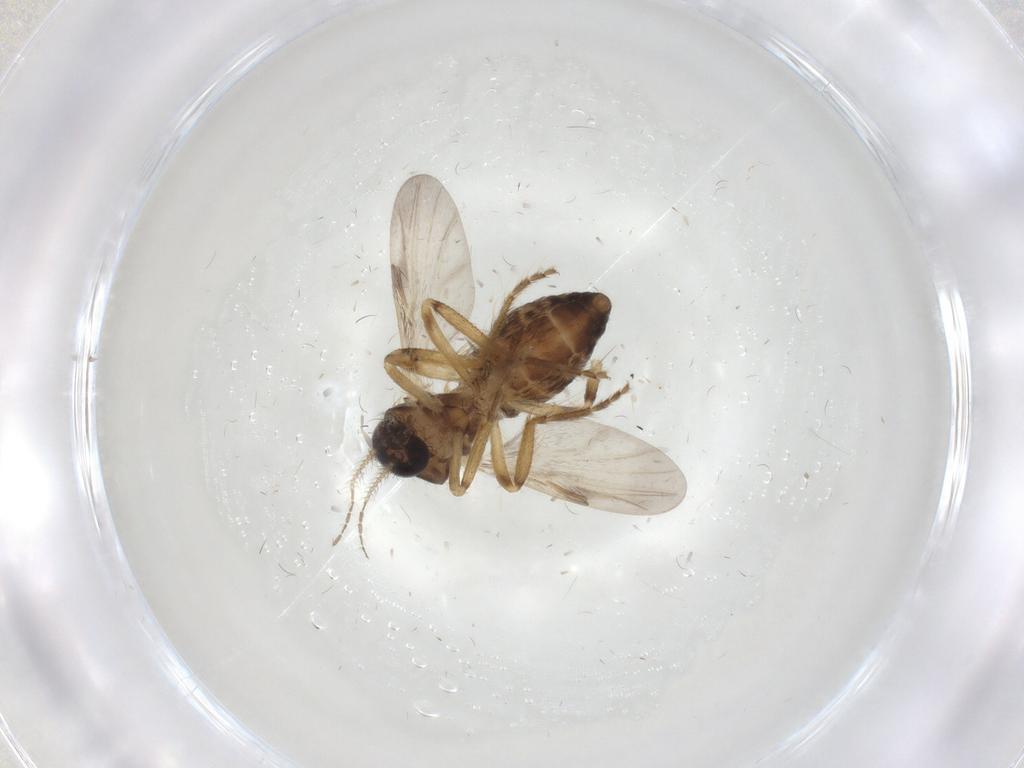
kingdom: Animalia
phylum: Arthropoda
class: Insecta
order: Diptera
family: Ceratopogonidae
